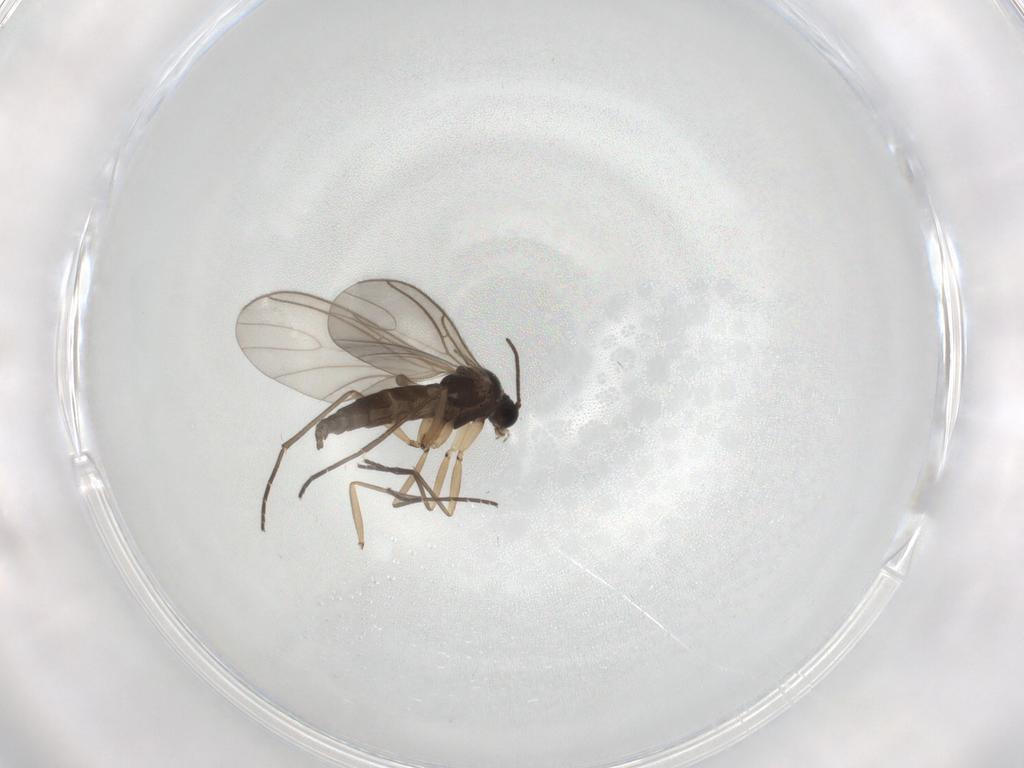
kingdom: Animalia
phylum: Arthropoda
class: Insecta
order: Diptera
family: Sciaridae
